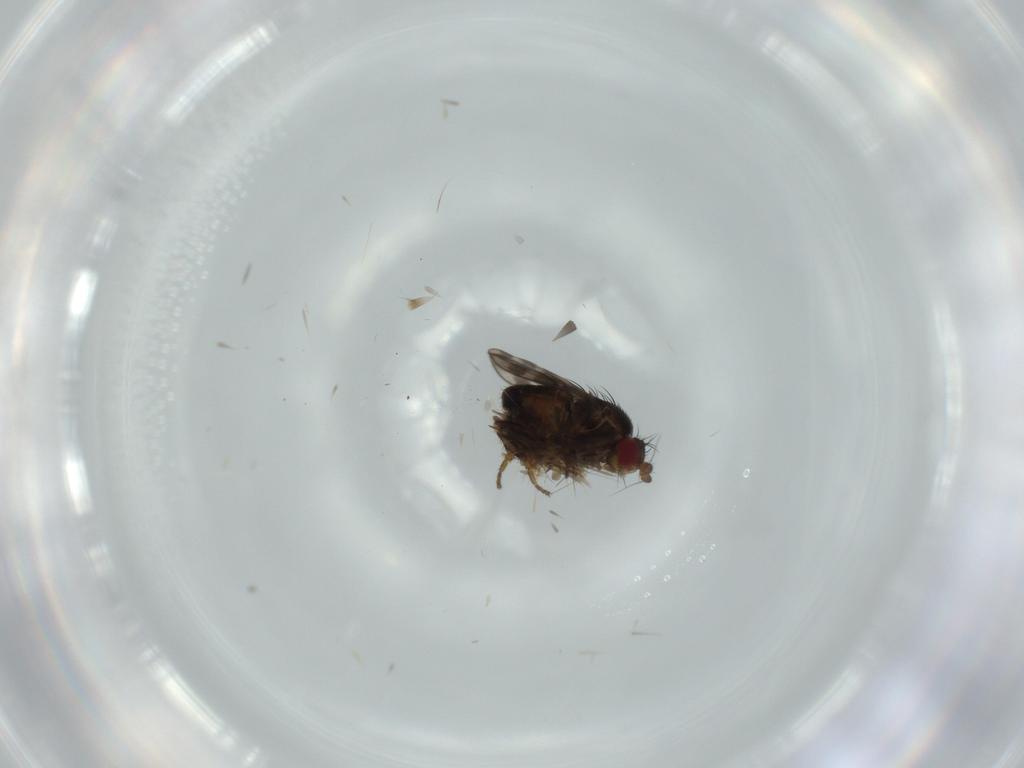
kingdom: Animalia
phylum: Arthropoda
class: Insecta
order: Diptera
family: Sphaeroceridae
